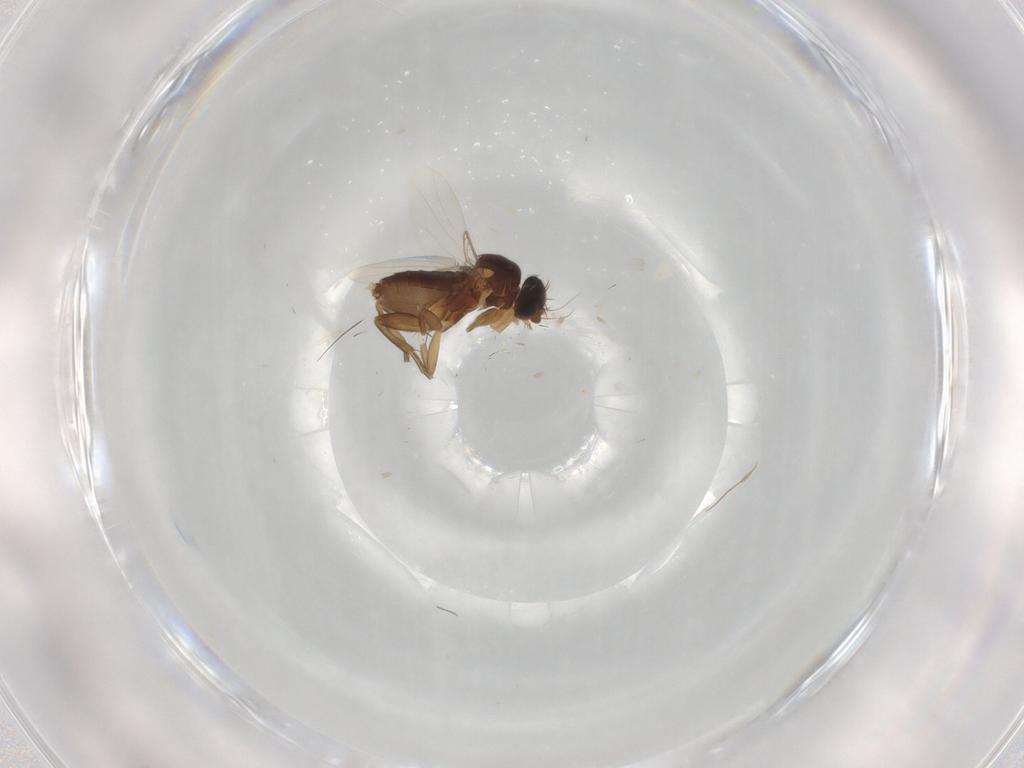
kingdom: Animalia
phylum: Arthropoda
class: Insecta
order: Diptera
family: Phoridae
